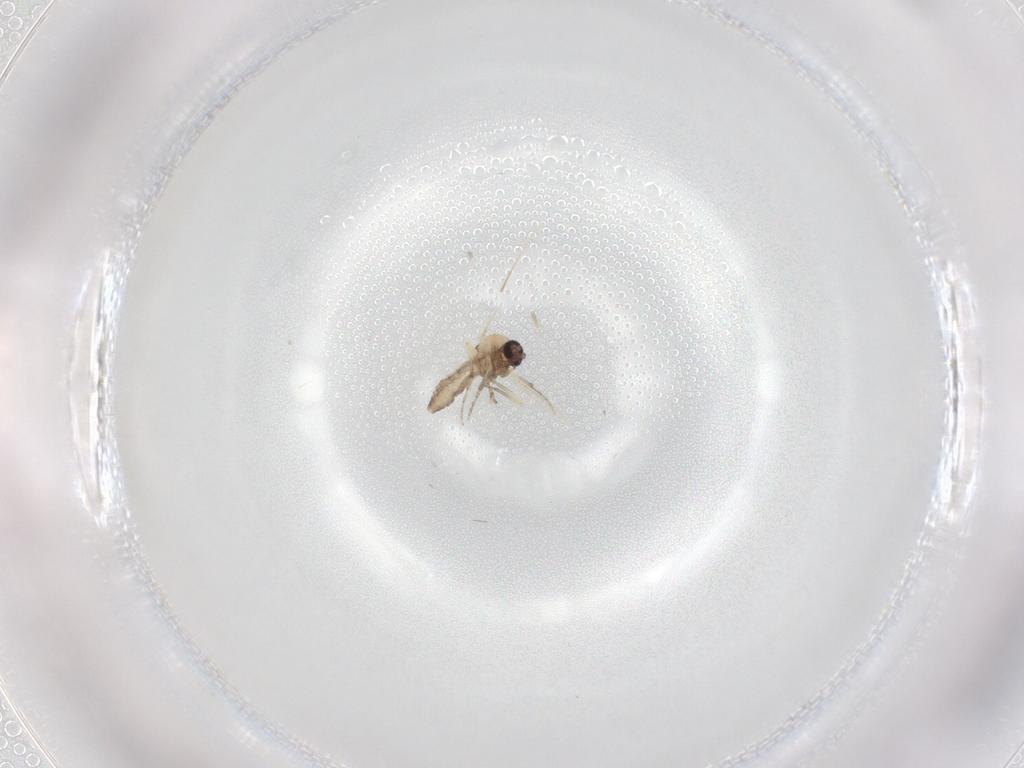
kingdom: Animalia
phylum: Arthropoda
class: Insecta
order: Diptera
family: Ceratopogonidae
